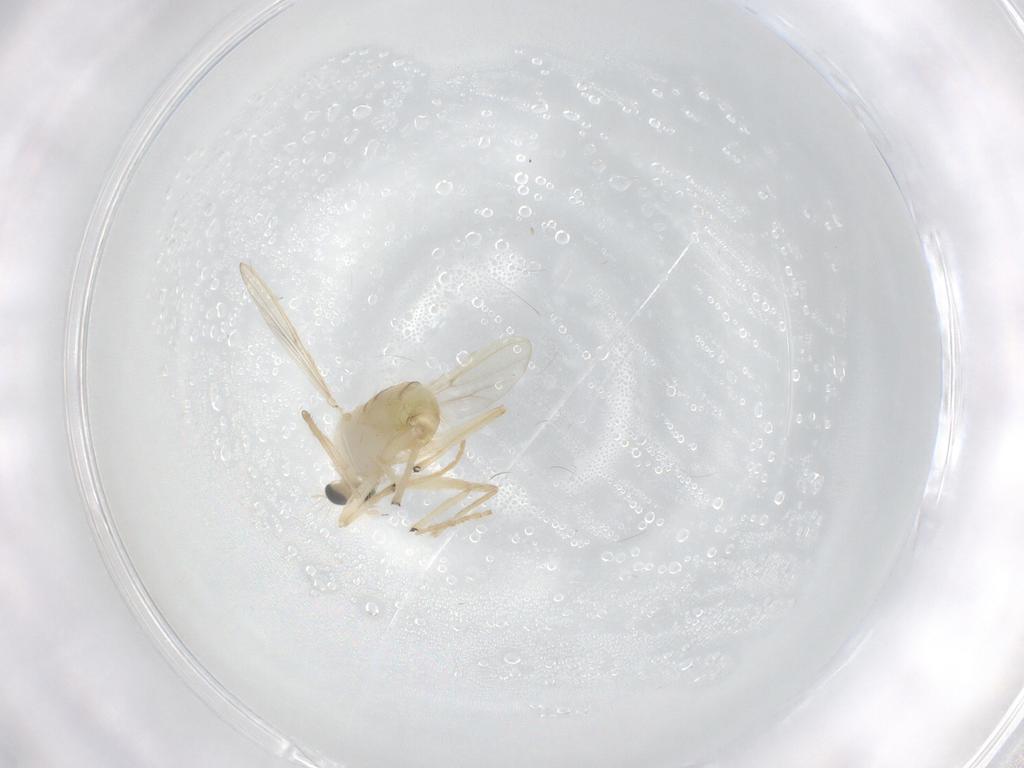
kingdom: Animalia
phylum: Arthropoda
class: Insecta
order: Diptera
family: Chironomidae
